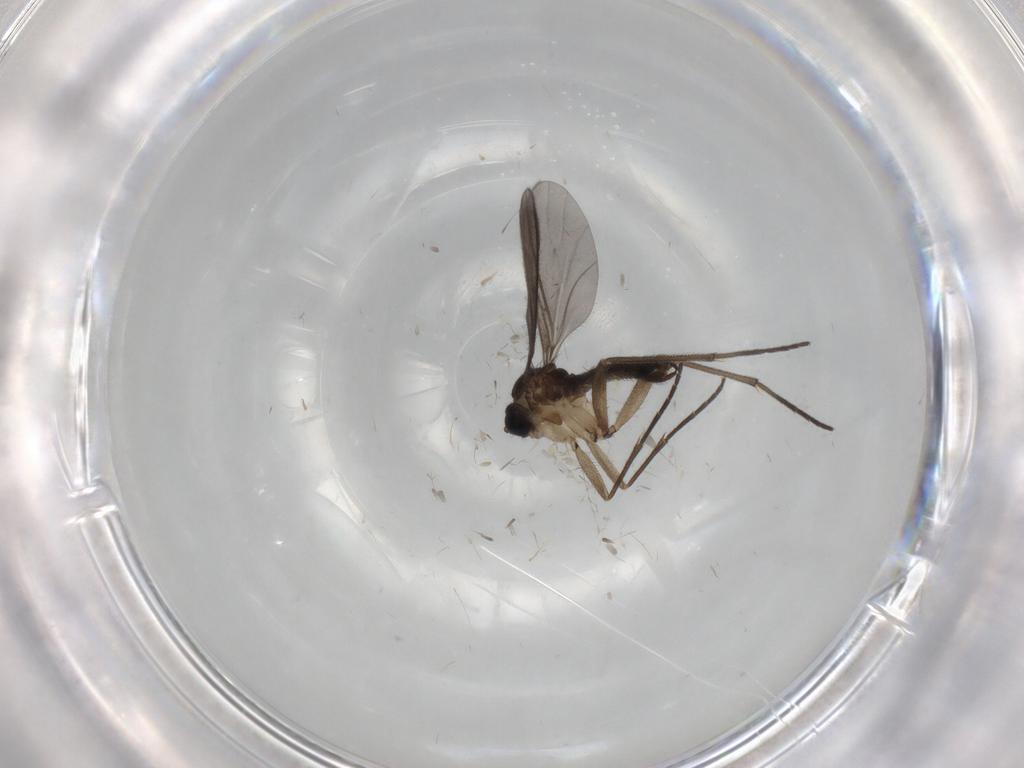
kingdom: Animalia
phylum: Arthropoda
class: Insecta
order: Diptera
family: Sciaridae
